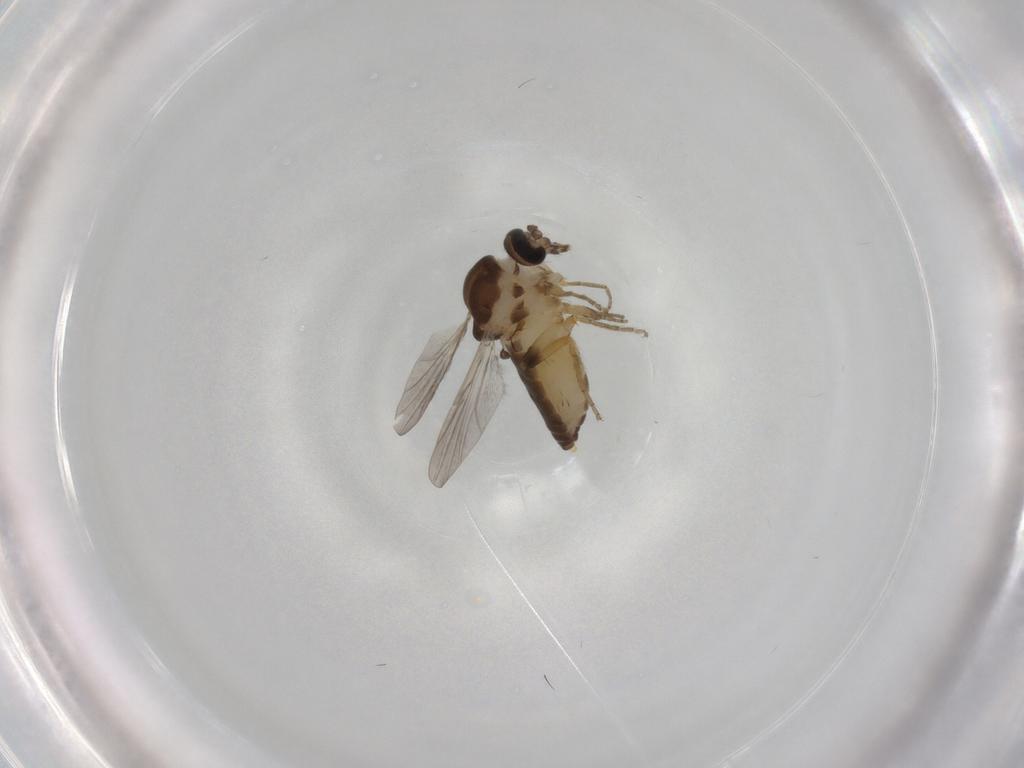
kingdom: Animalia
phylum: Arthropoda
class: Insecta
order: Diptera
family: Ceratopogonidae
